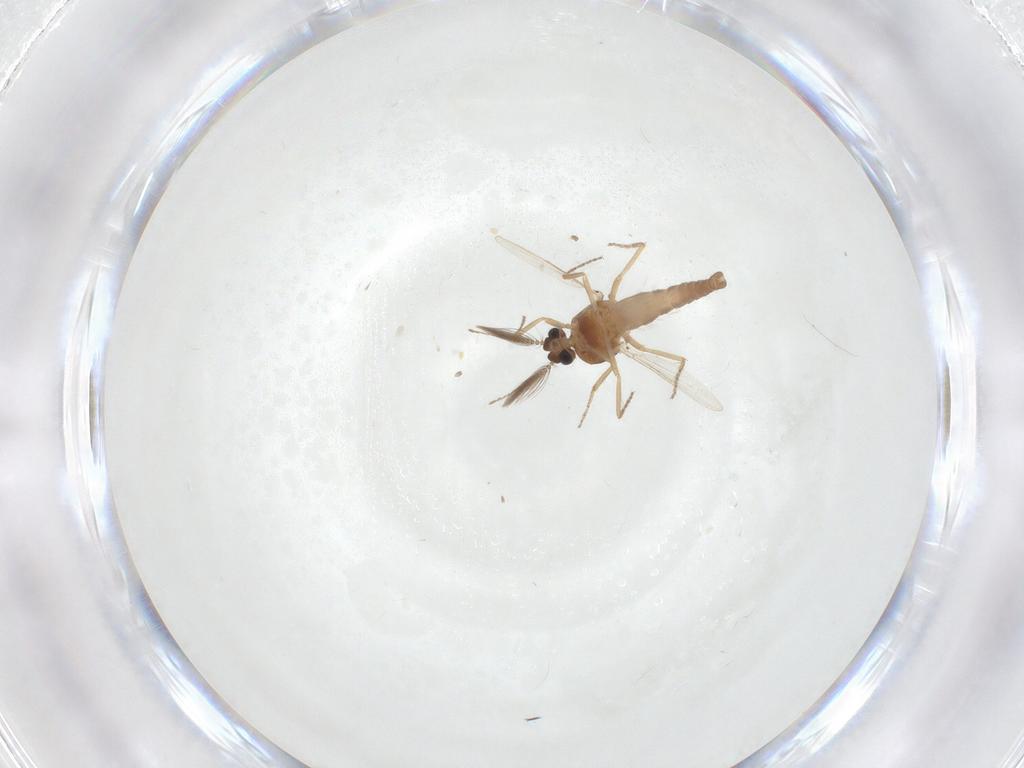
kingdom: Animalia
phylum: Arthropoda
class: Insecta
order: Diptera
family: Ceratopogonidae
